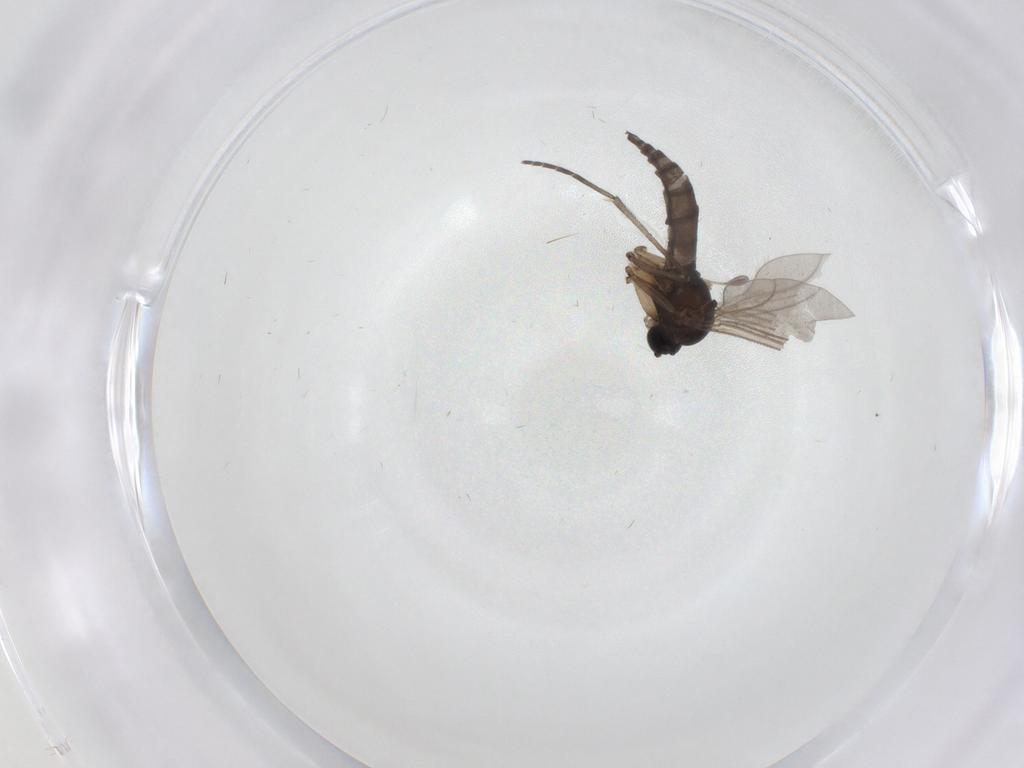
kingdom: Animalia
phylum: Arthropoda
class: Insecta
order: Diptera
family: Sciaridae
